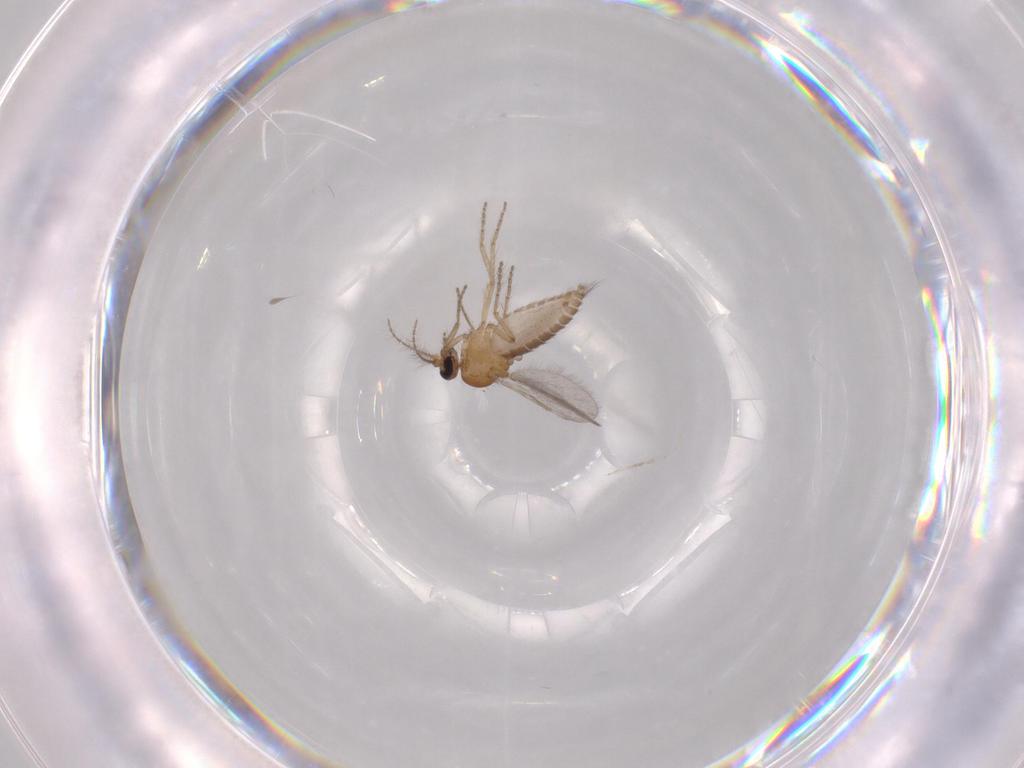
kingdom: Animalia
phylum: Arthropoda
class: Insecta
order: Diptera
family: Ceratopogonidae
